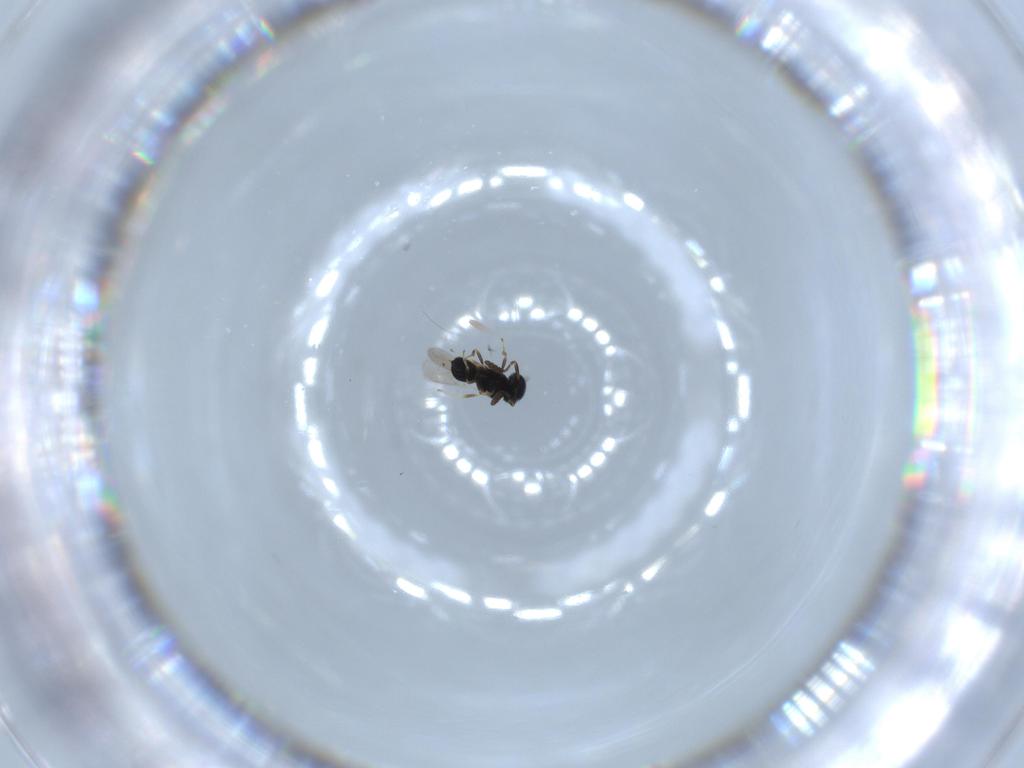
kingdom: Animalia
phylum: Arthropoda
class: Insecta
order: Hymenoptera
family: Scelionidae
